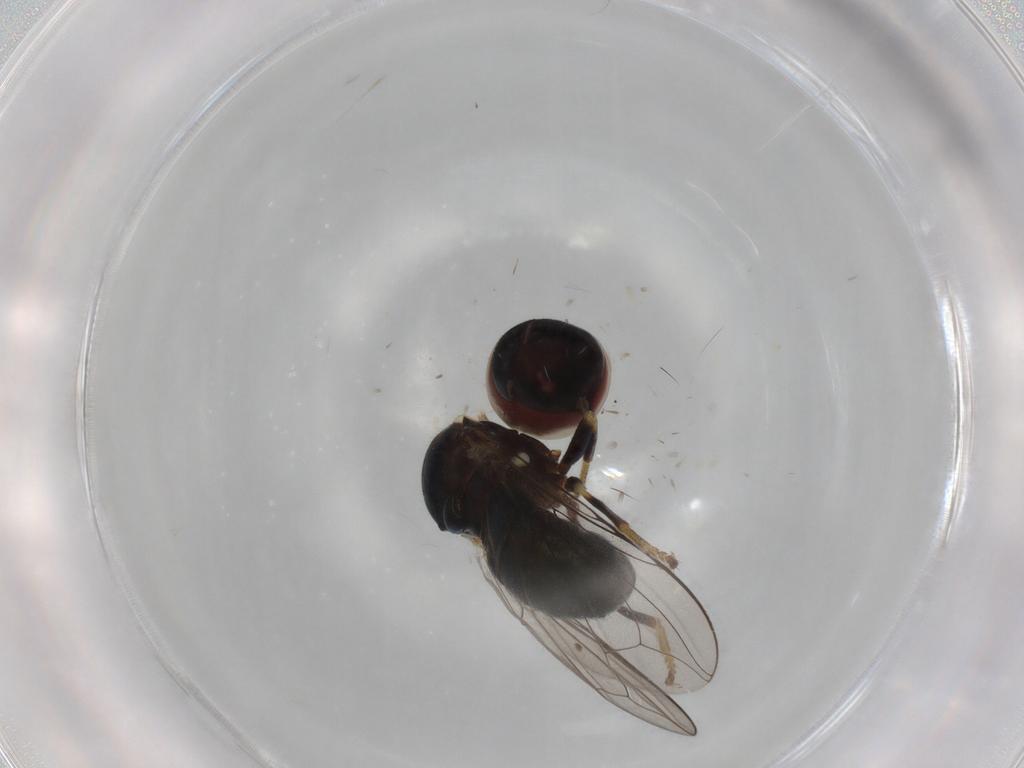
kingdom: Animalia
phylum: Arthropoda
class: Insecta
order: Diptera
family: Pipunculidae
